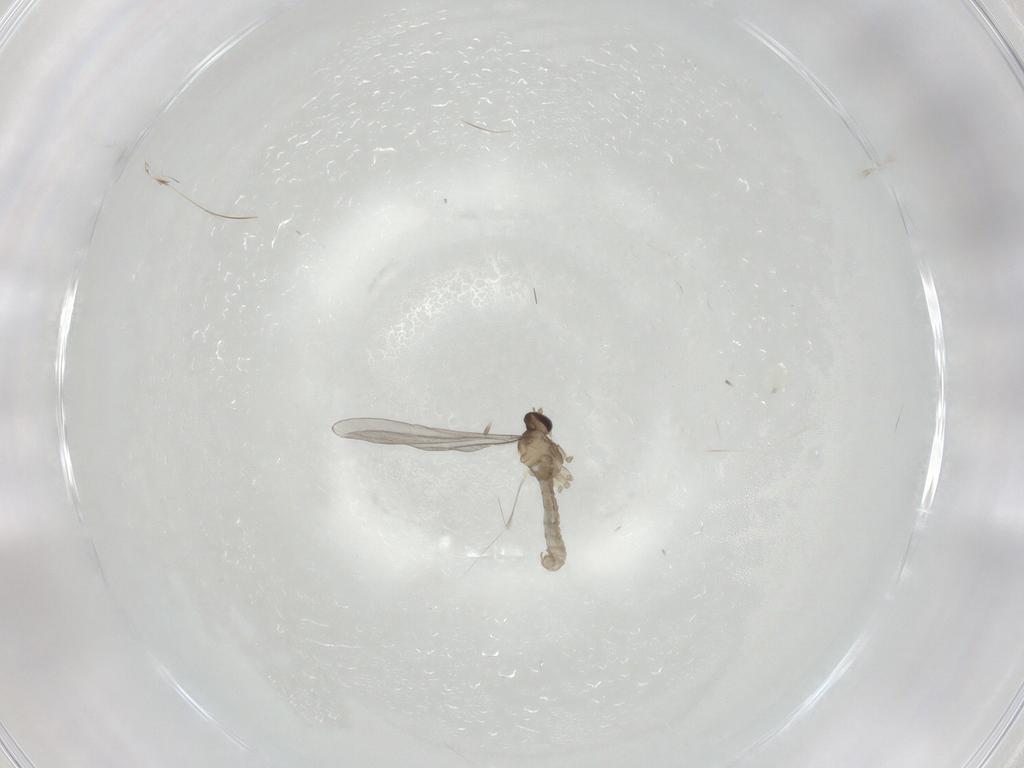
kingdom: Animalia
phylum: Arthropoda
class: Insecta
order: Diptera
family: Cecidomyiidae
